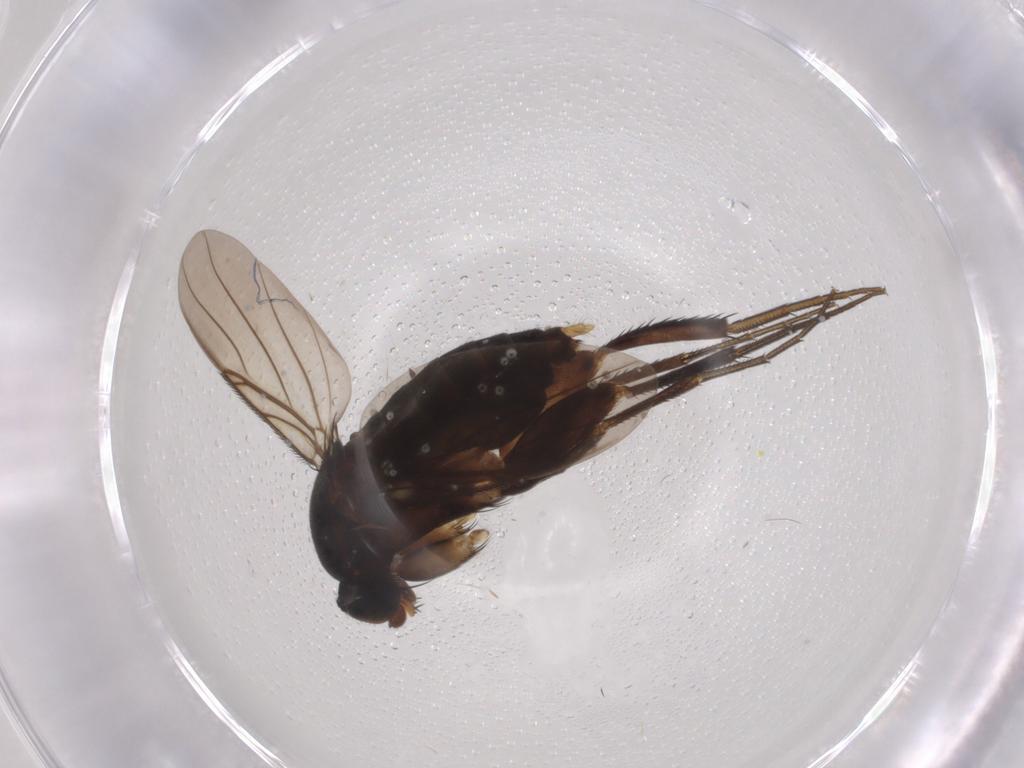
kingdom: Animalia
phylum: Arthropoda
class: Insecta
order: Diptera
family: Phoridae
